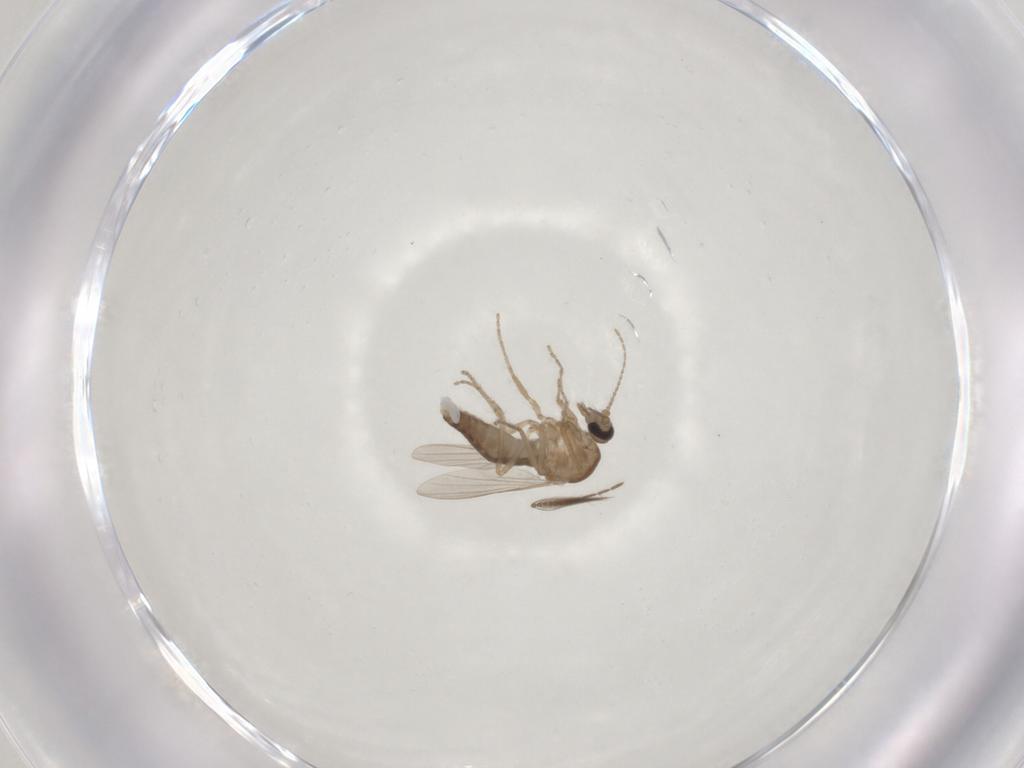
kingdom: Animalia
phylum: Arthropoda
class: Insecta
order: Diptera
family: Ceratopogonidae
